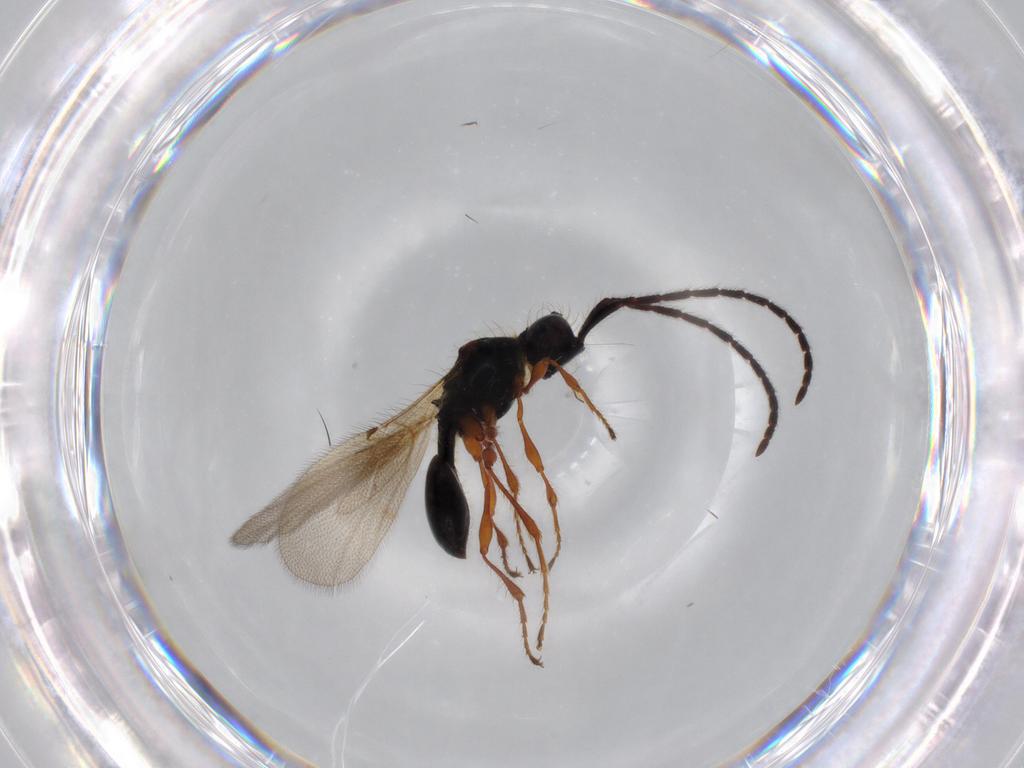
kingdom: Animalia
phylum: Arthropoda
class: Insecta
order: Hymenoptera
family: Diapriidae
